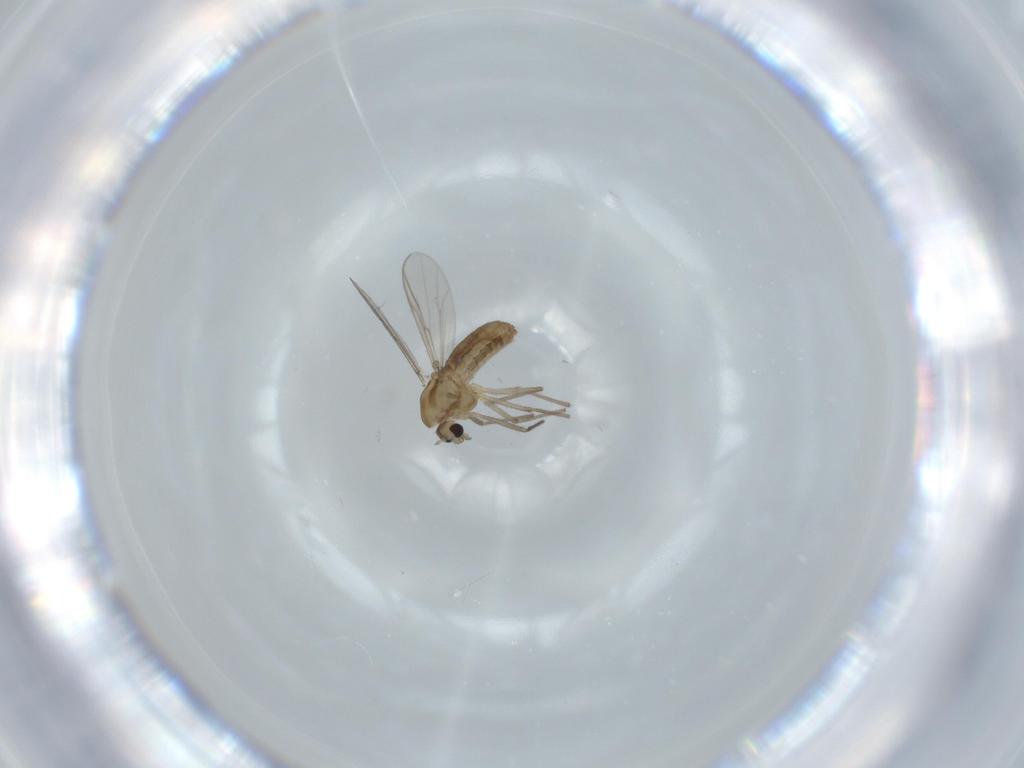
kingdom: Animalia
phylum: Arthropoda
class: Insecta
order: Diptera
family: Chironomidae
